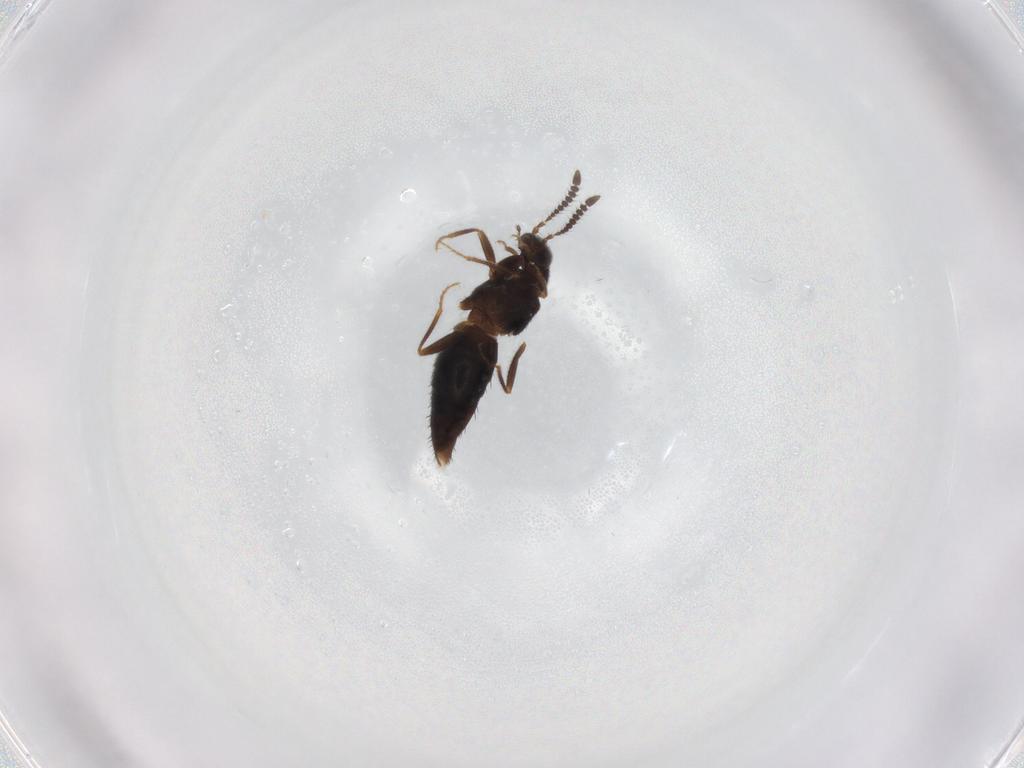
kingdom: Animalia
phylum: Arthropoda
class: Insecta
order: Coleoptera
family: Staphylinidae
